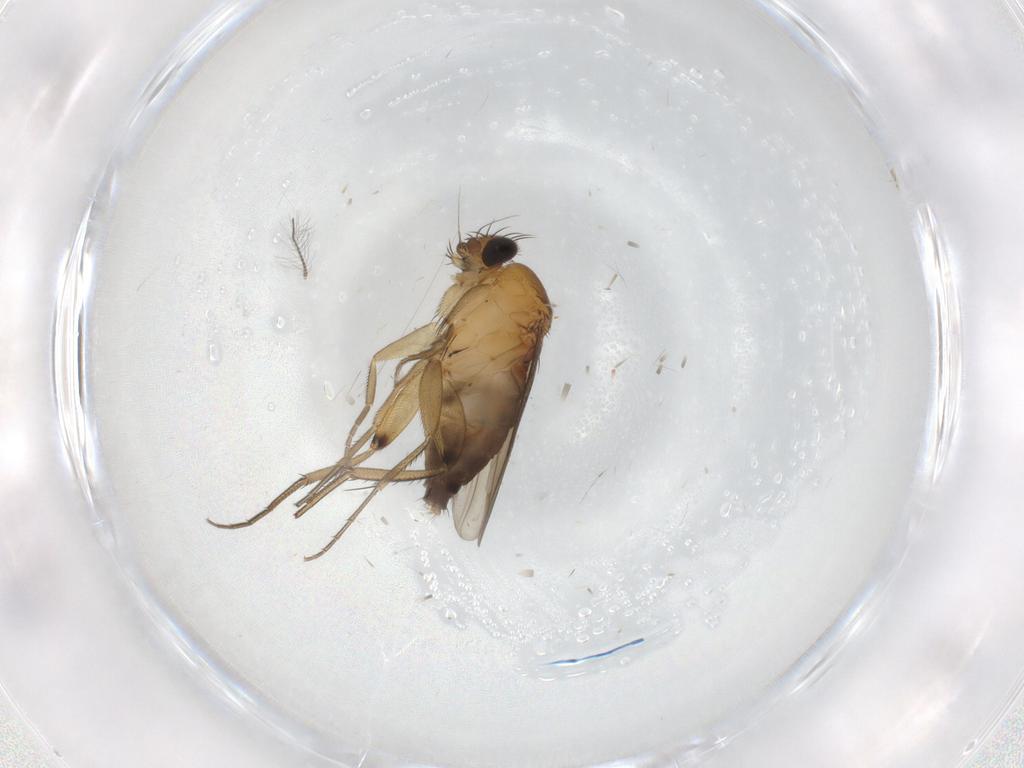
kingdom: Animalia
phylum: Arthropoda
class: Insecta
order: Diptera
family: Phoridae
